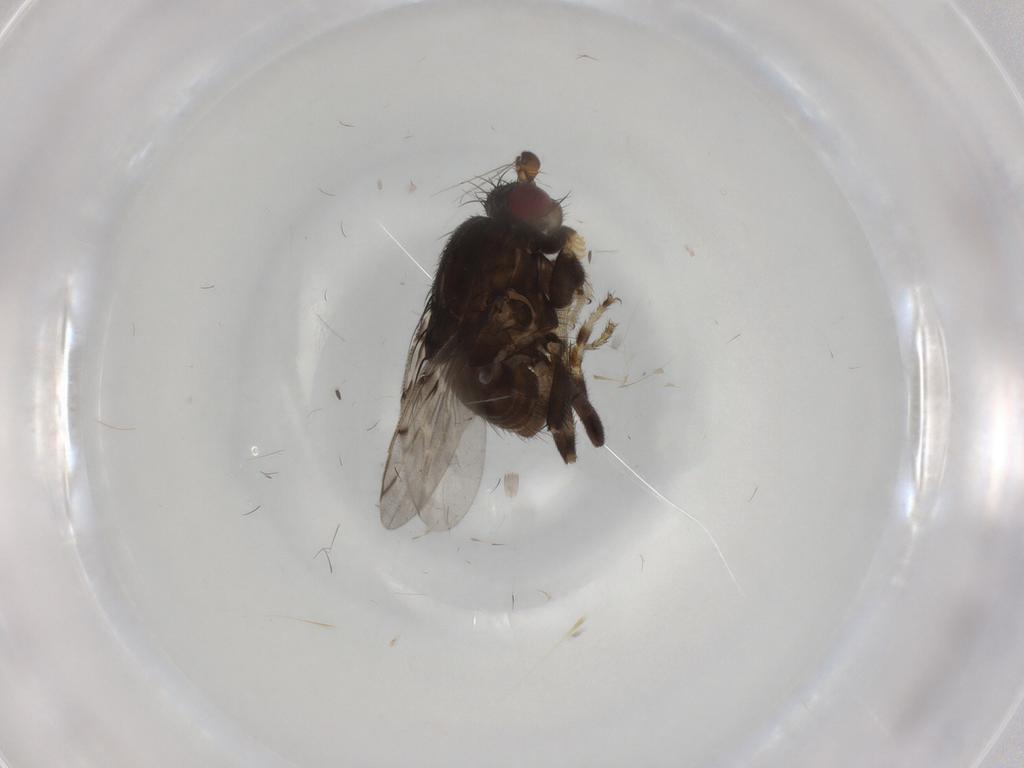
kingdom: Animalia
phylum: Arthropoda
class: Insecta
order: Diptera
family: Sphaeroceridae
